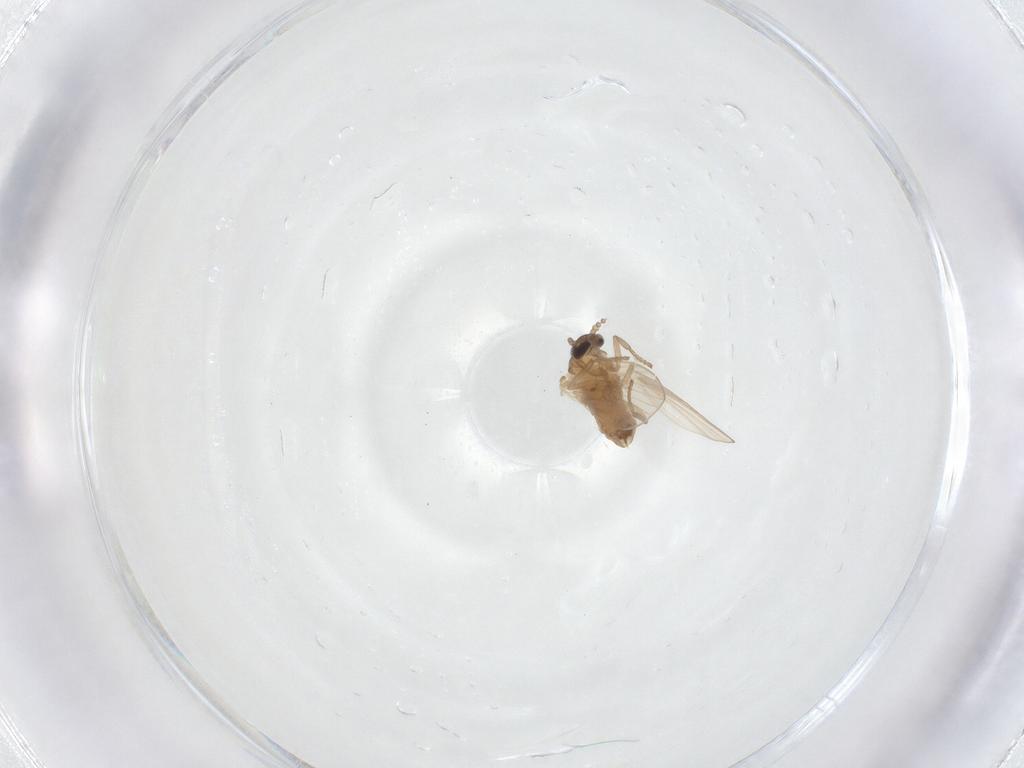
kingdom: Animalia
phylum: Arthropoda
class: Insecta
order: Diptera
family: Psychodidae
